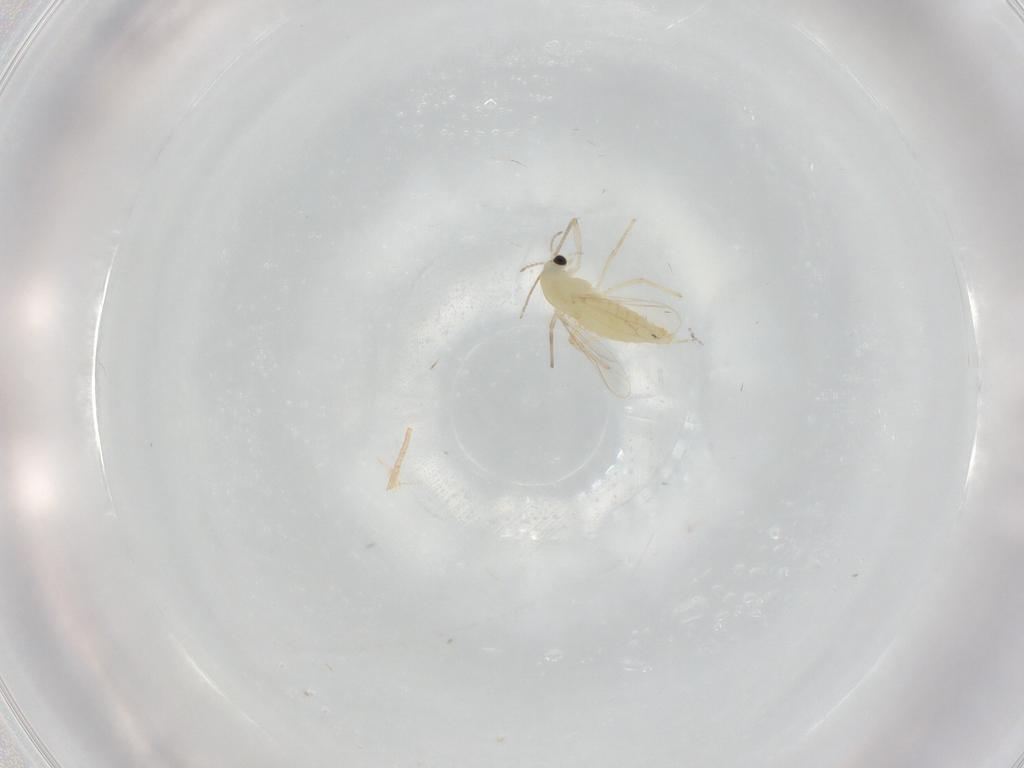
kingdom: Animalia
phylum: Arthropoda
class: Insecta
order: Diptera
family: Chironomidae
